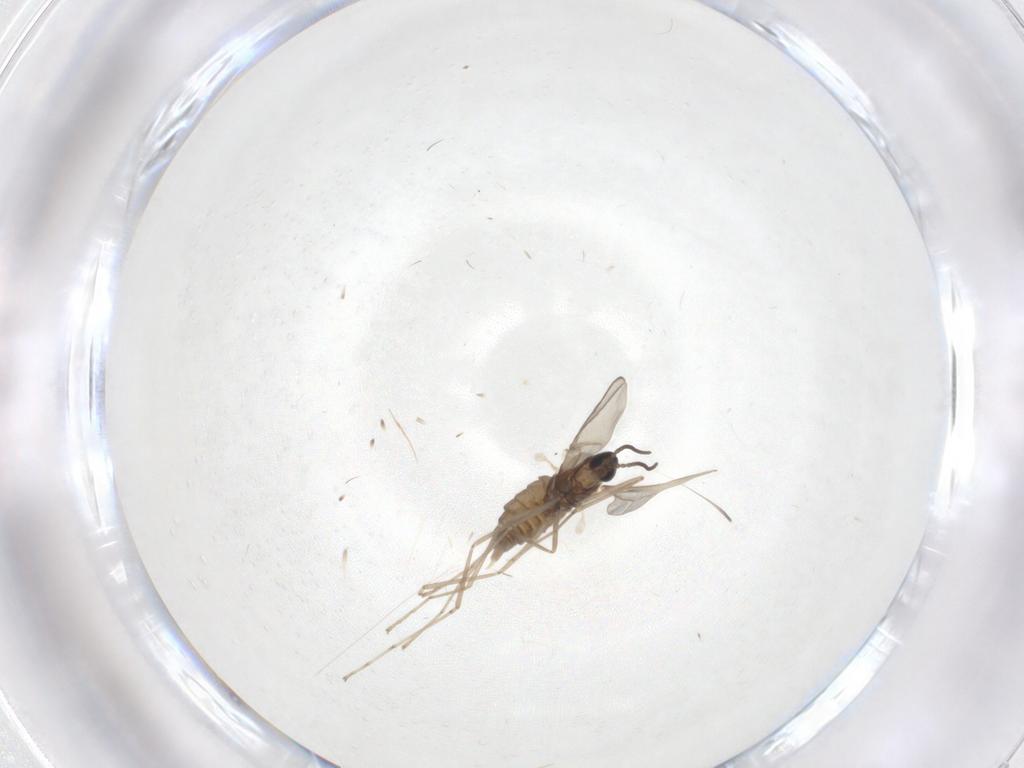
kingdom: Animalia
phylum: Arthropoda
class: Insecta
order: Diptera
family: Cecidomyiidae
